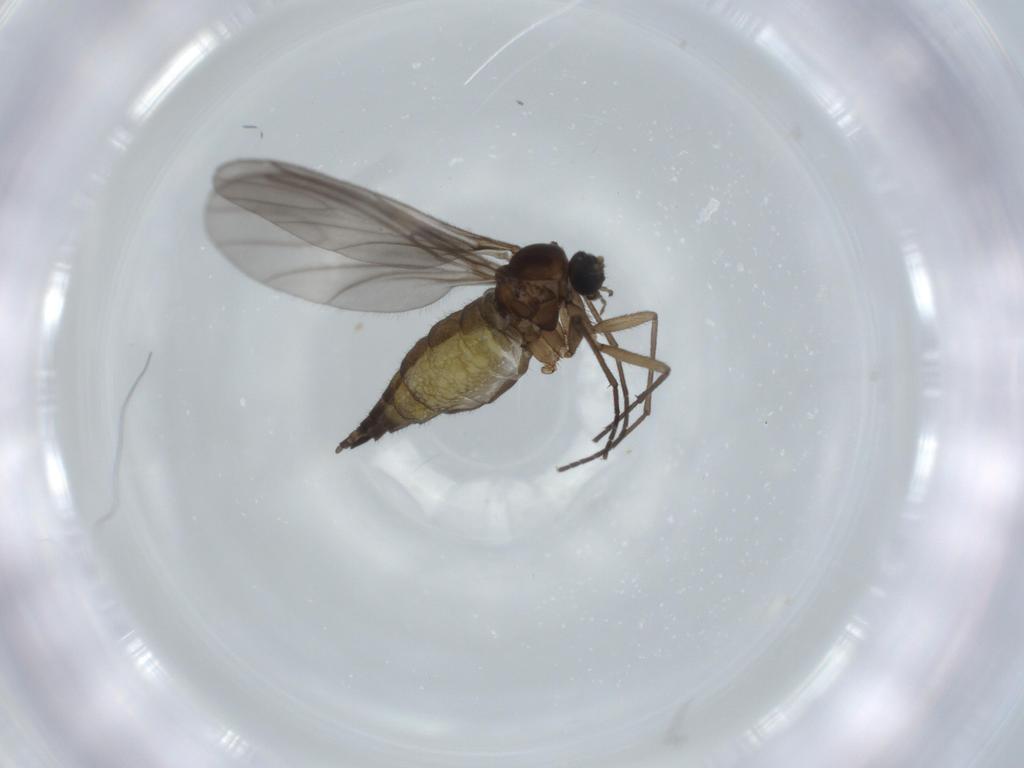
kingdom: Animalia
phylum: Arthropoda
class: Insecta
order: Diptera
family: Sciaridae
